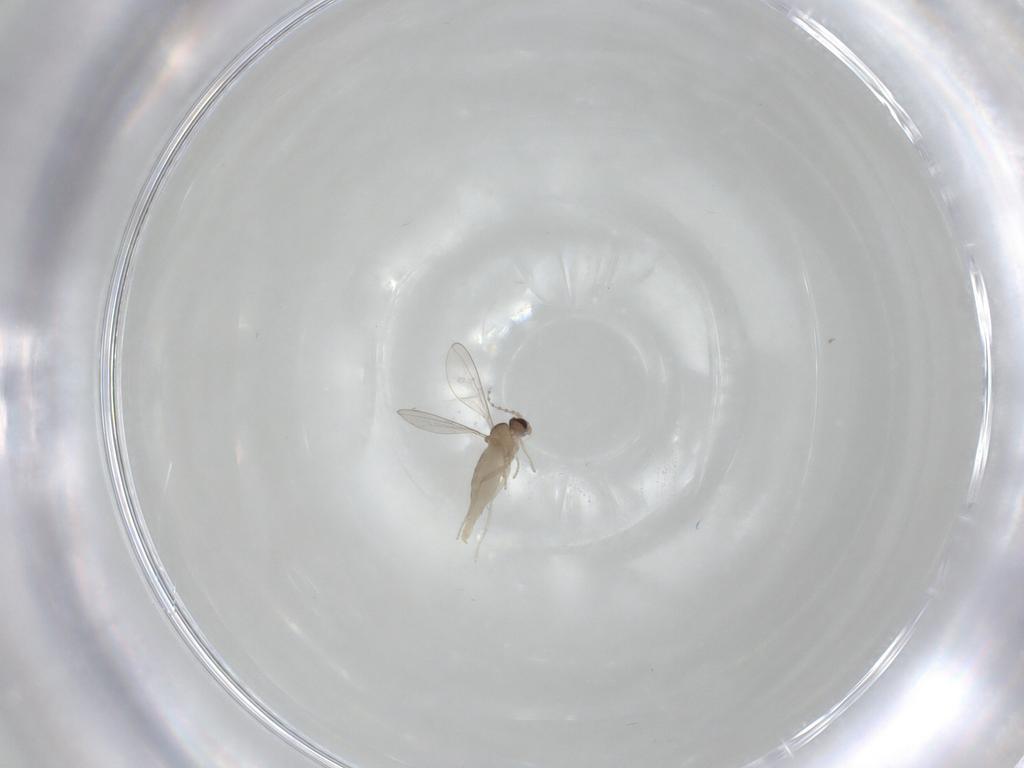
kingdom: Animalia
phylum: Arthropoda
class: Insecta
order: Diptera
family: Cecidomyiidae
